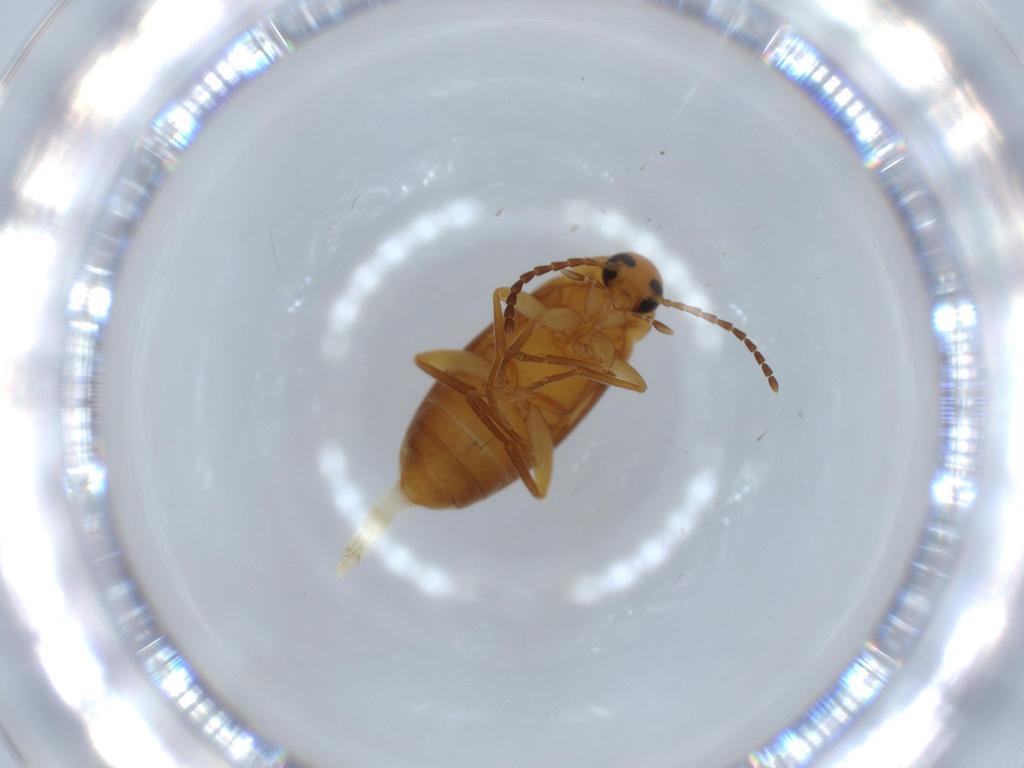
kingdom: Animalia
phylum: Arthropoda
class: Insecta
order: Coleoptera
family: Scraptiidae
